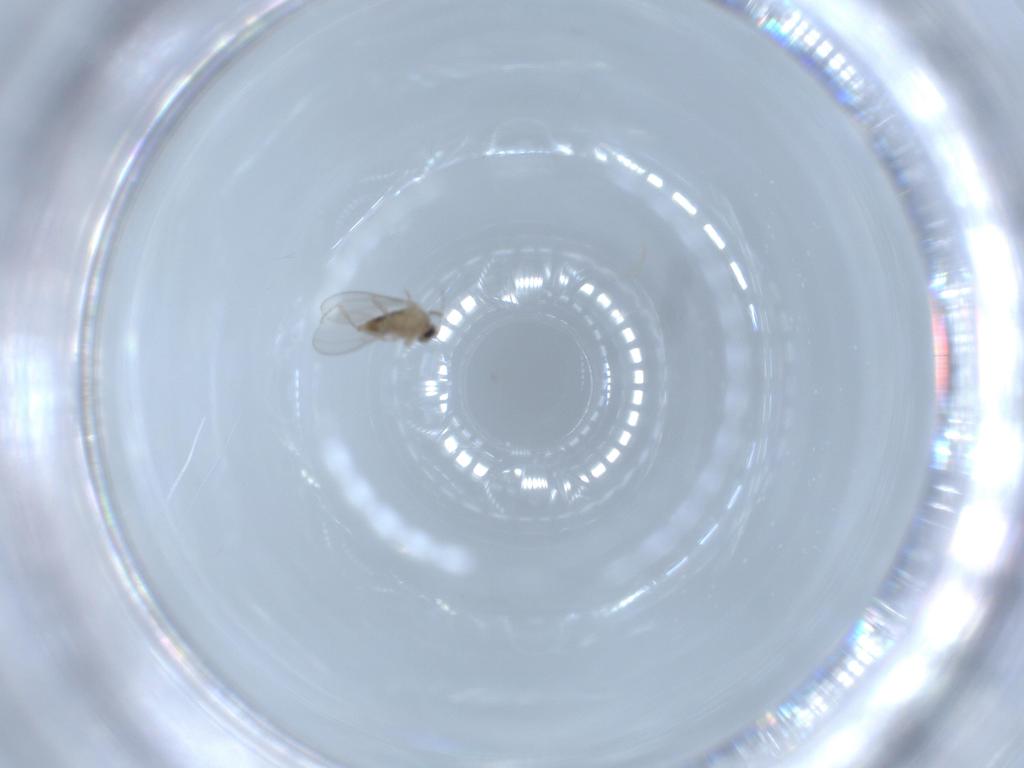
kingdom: Animalia
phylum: Arthropoda
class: Insecta
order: Diptera
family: Cecidomyiidae
